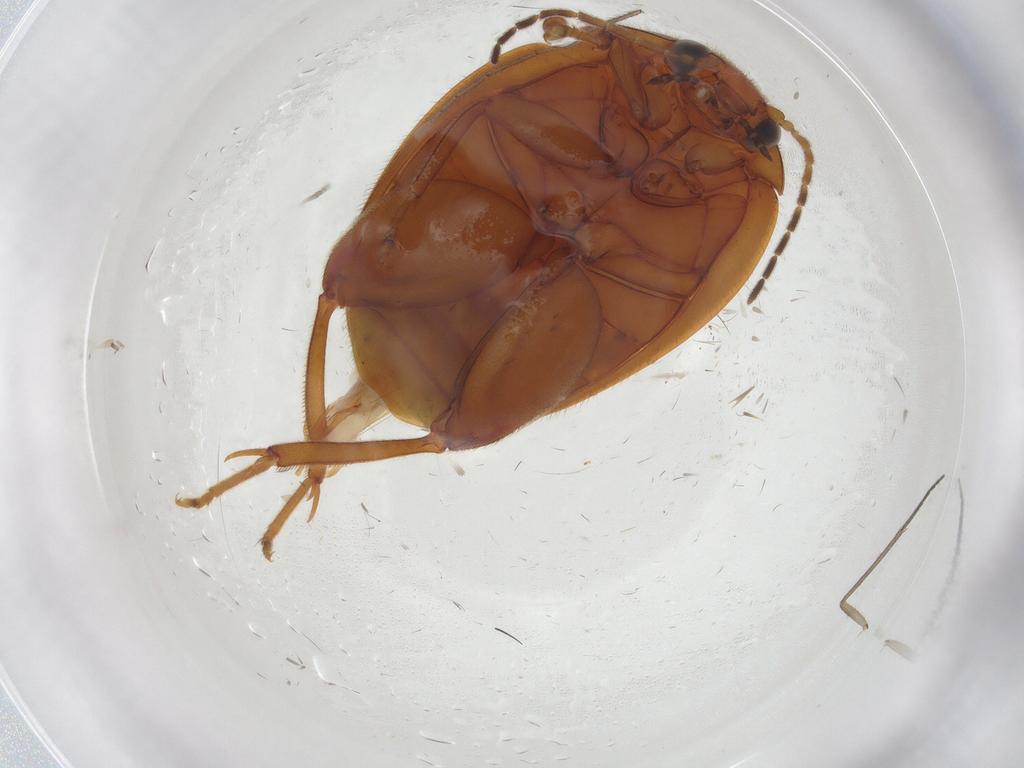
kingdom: Animalia
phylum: Arthropoda
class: Insecta
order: Coleoptera
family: Scirtidae
